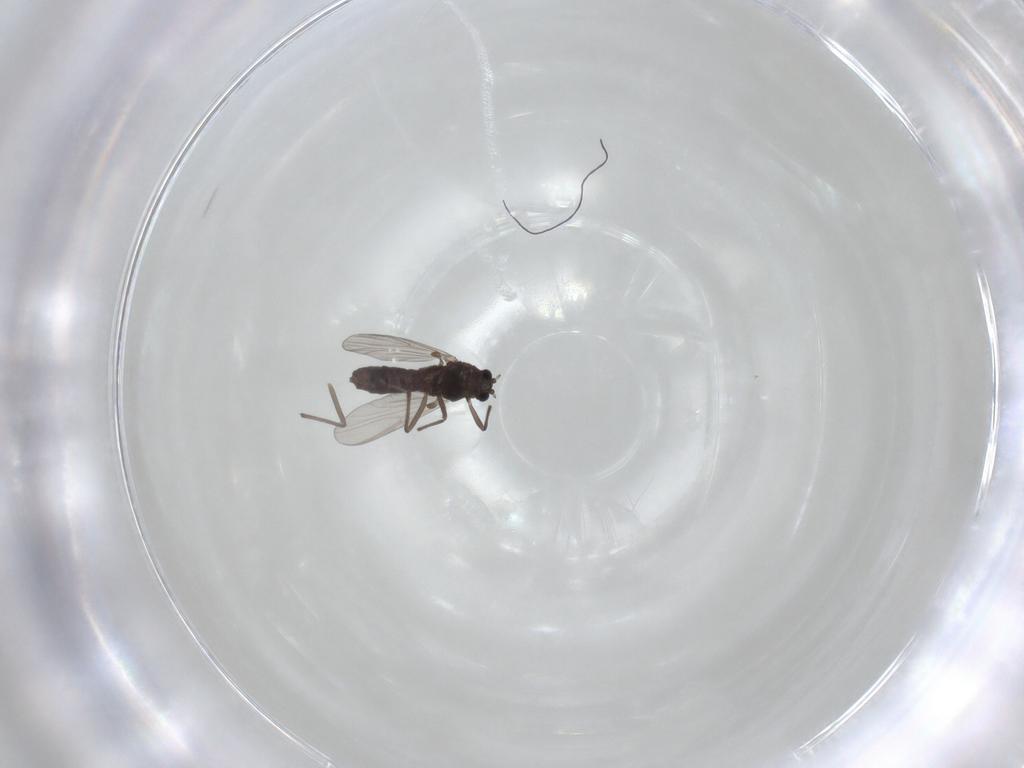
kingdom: Animalia
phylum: Arthropoda
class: Insecta
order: Diptera
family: Chironomidae
